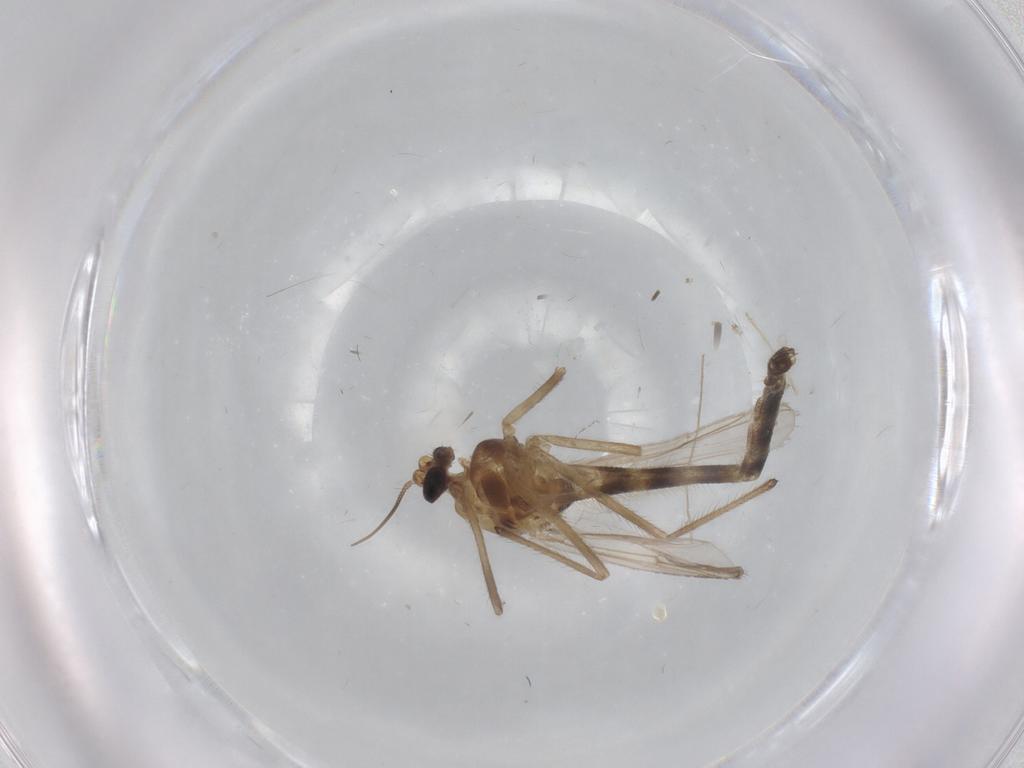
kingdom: Animalia
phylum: Arthropoda
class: Insecta
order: Diptera
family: Chironomidae
